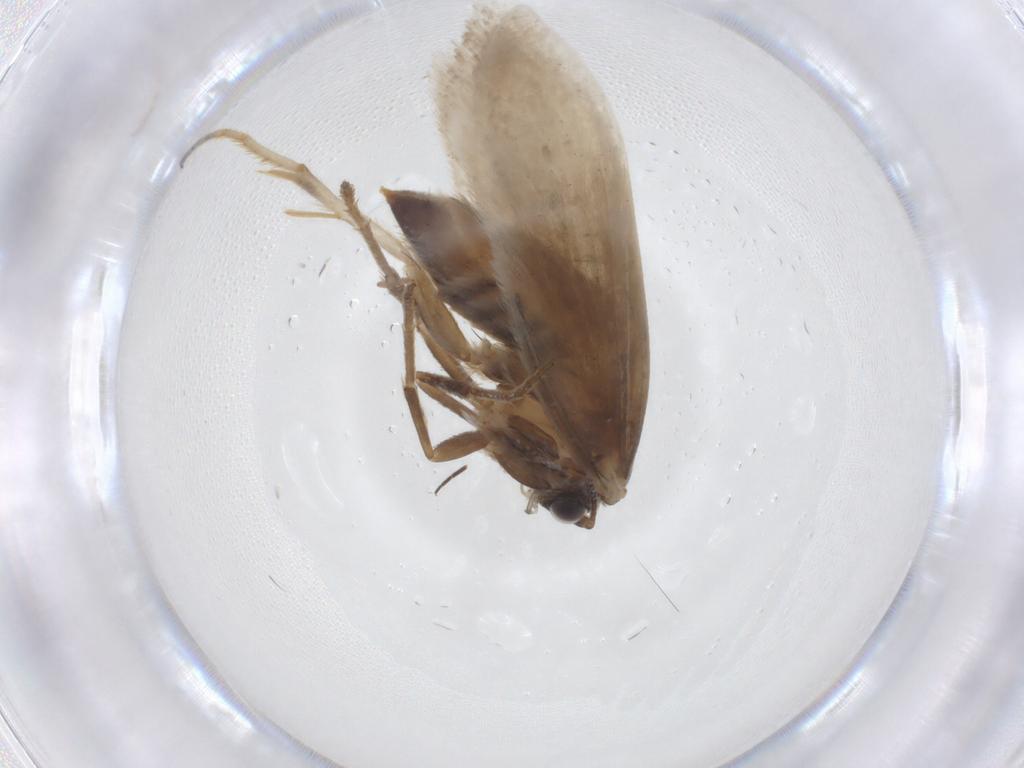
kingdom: Animalia
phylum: Arthropoda
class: Insecta
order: Lepidoptera
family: Tridentaformidae
